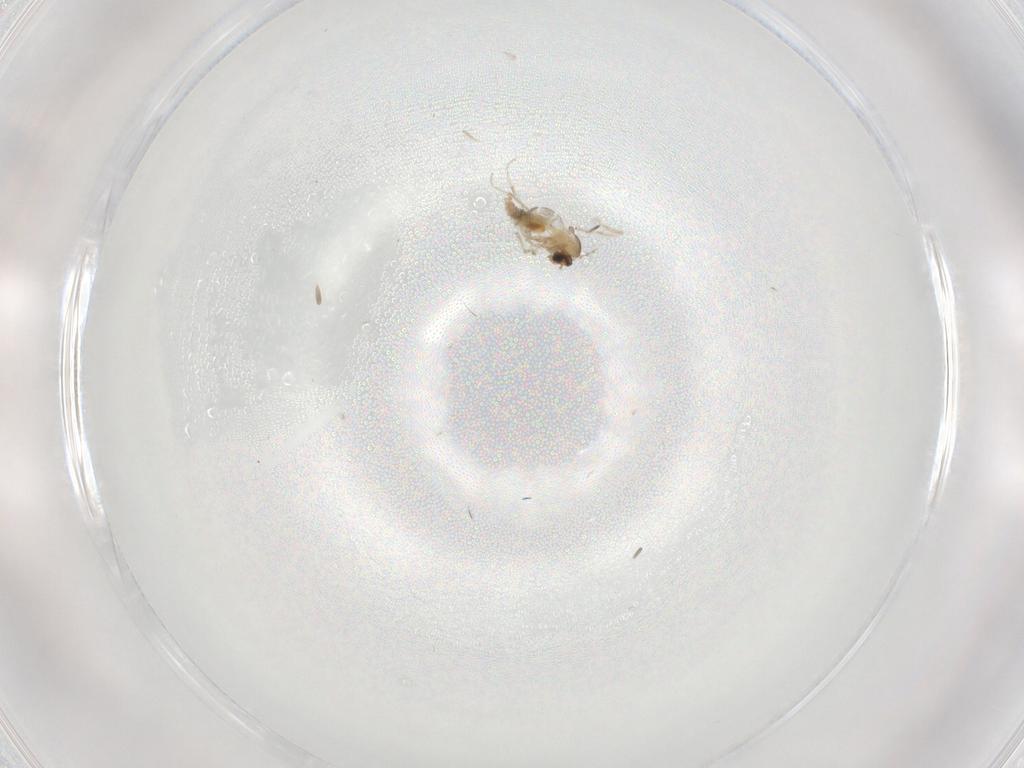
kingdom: Animalia
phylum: Arthropoda
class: Insecta
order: Diptera
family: Cecidomyiidae
